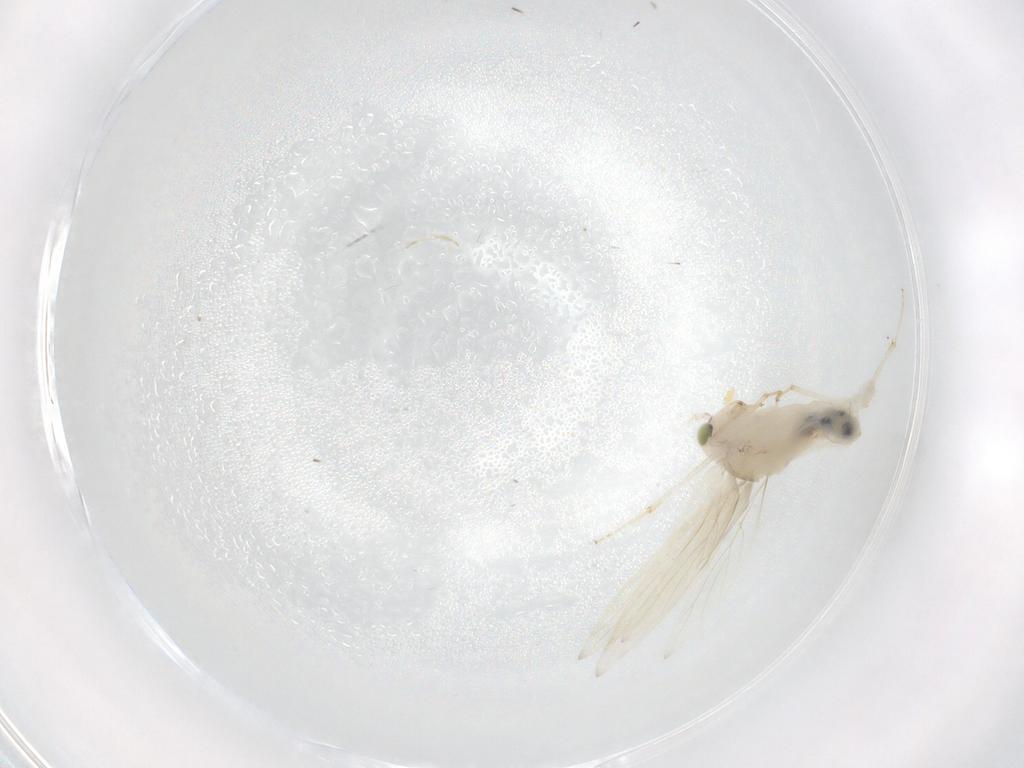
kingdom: Animalia
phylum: Arthropoda
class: Insecta
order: Psocodea
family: Lepidopsocidae
